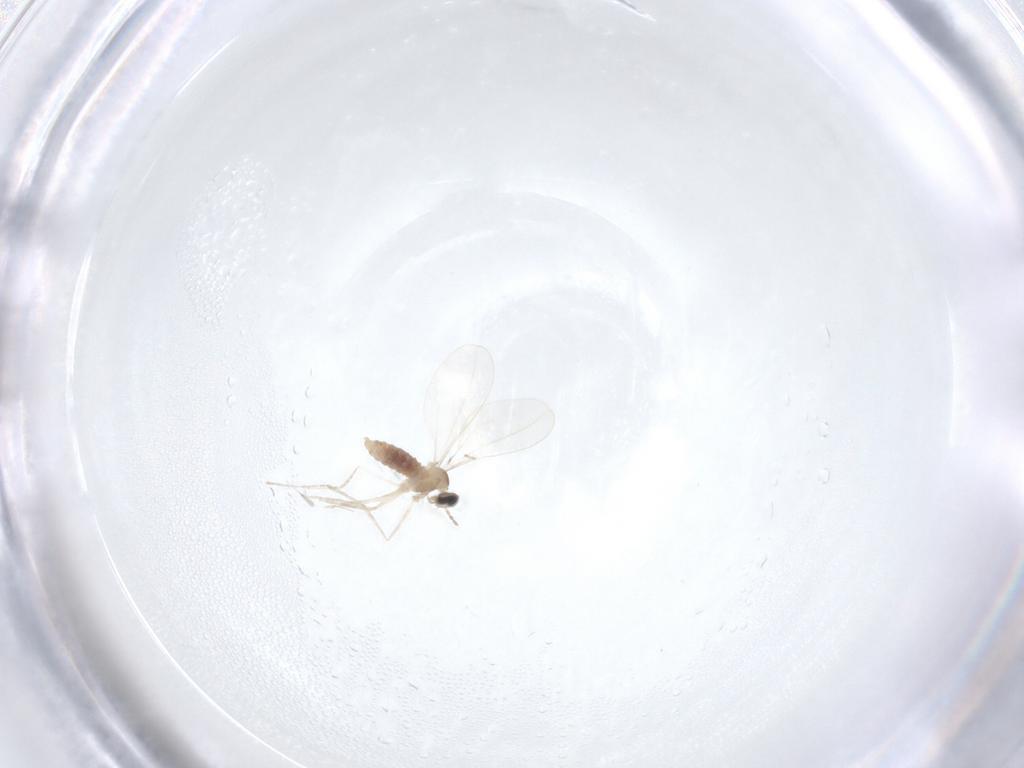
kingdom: Animalia
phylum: Arthropoda
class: Insecta
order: Diptera
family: Cecidomyiidae
